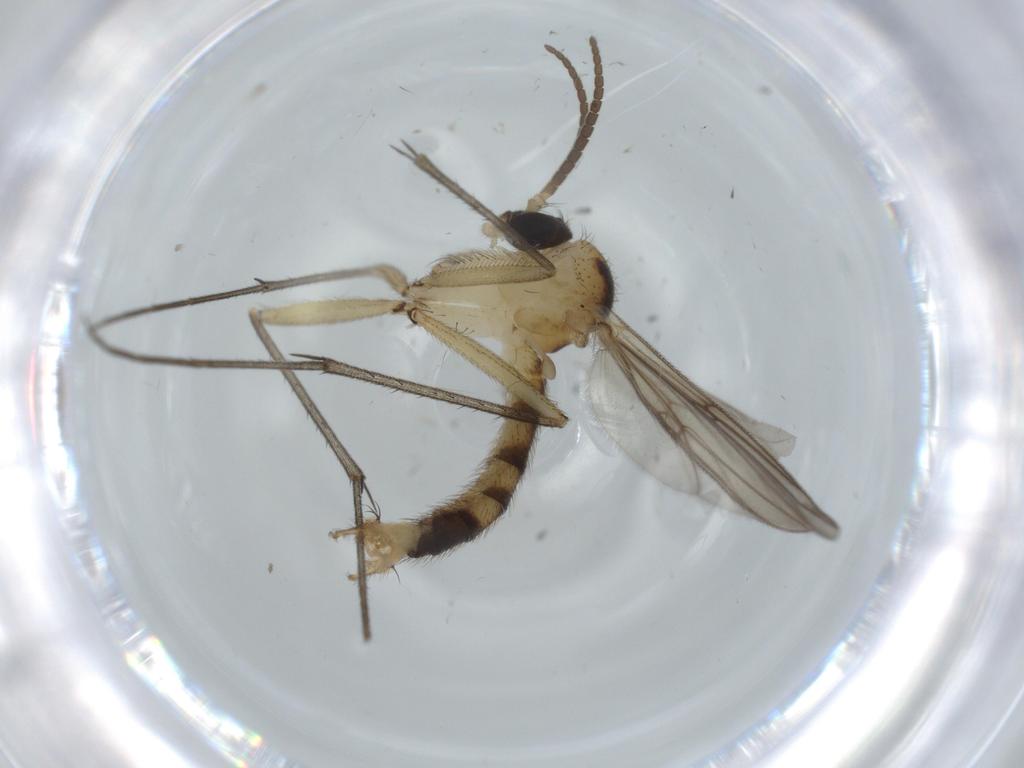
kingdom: Animalia
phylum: Arthropoda
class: Insecta
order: Diptera
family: Mycetophilidae
